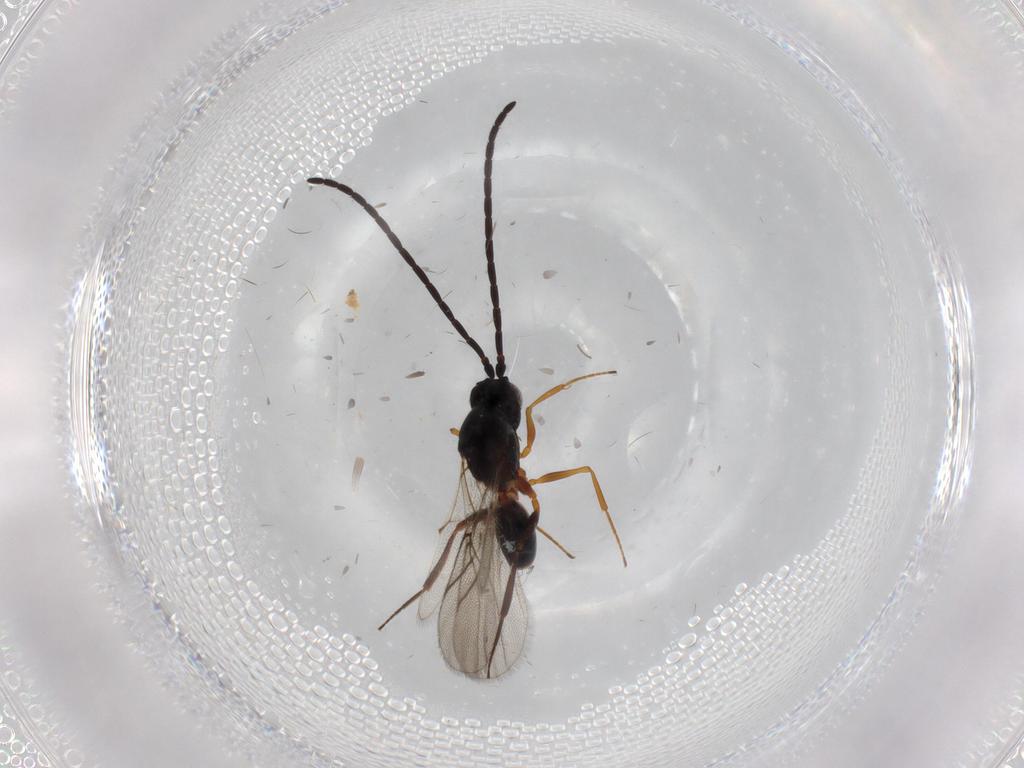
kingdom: Animalia
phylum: Arthropoda
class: Insecta
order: Hymenoptera
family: Figitidae
